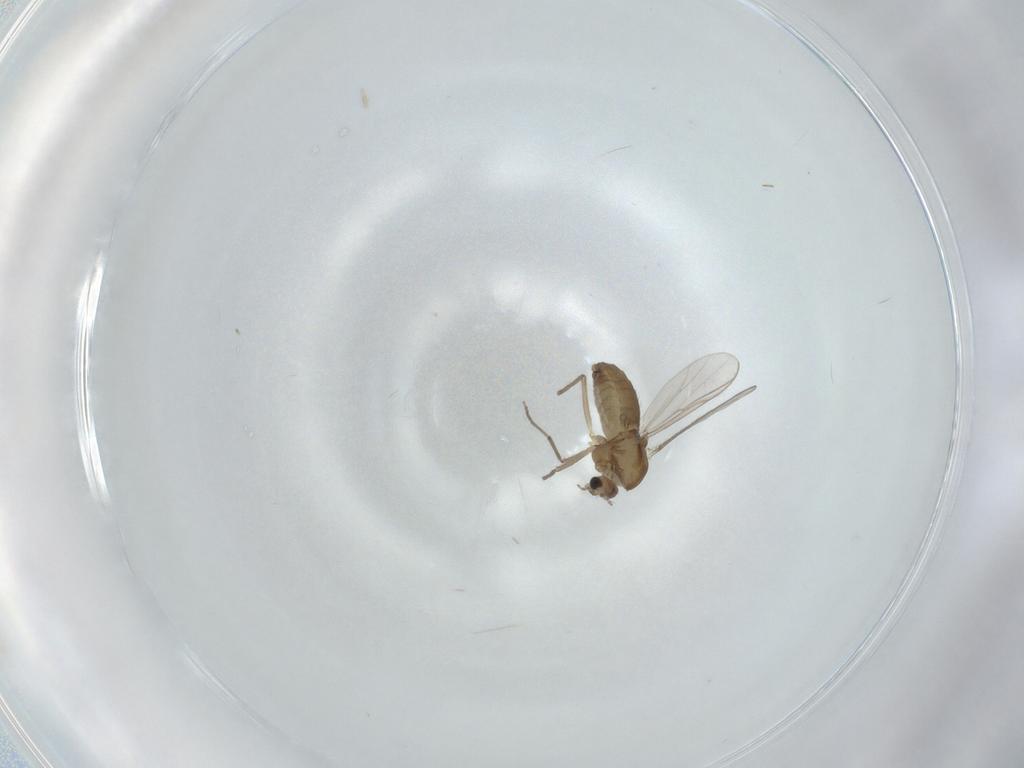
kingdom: Animalia
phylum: Arthropoda
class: Insecta
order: Diptera
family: Chironomidae
